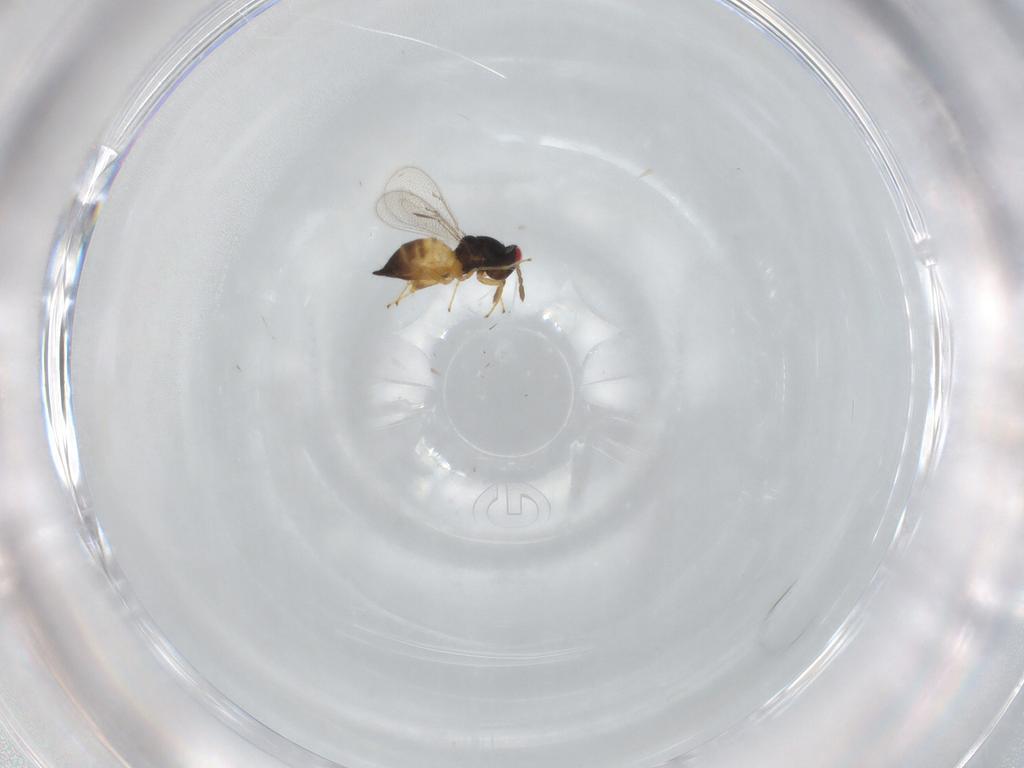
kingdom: Animalia
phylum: Arthropoda
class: Insecta
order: Hymenoptera
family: Eulophidae
